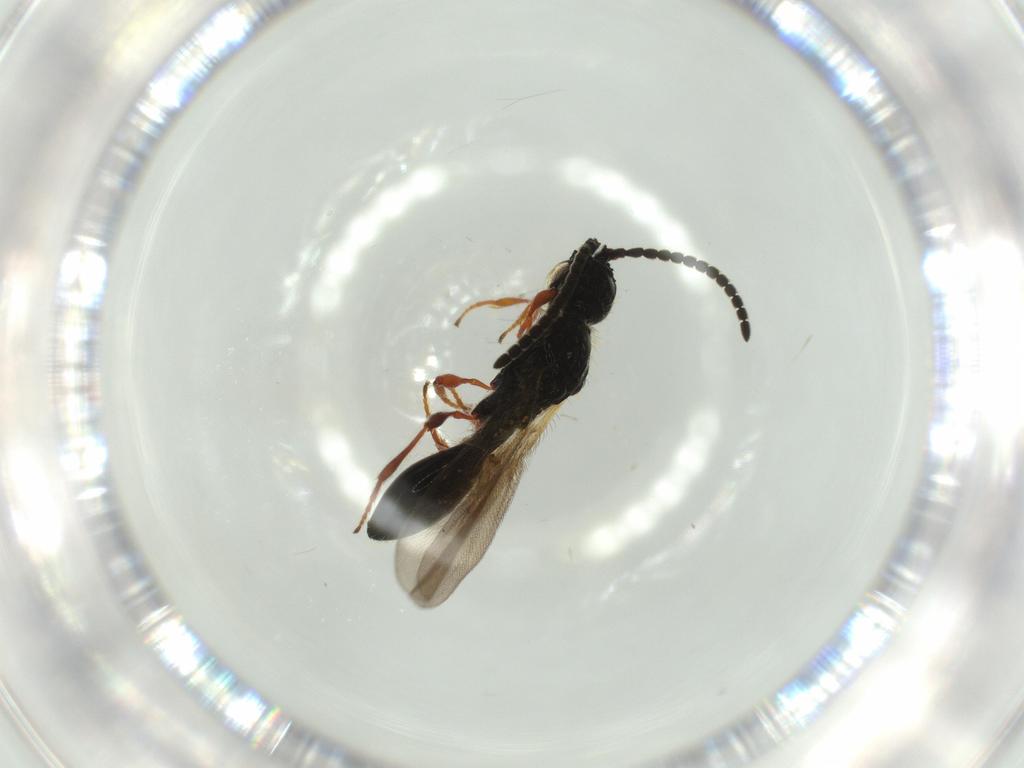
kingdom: Animalia
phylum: Arthropoda
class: Insecta
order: Hymenoptera
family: Diapriidae
